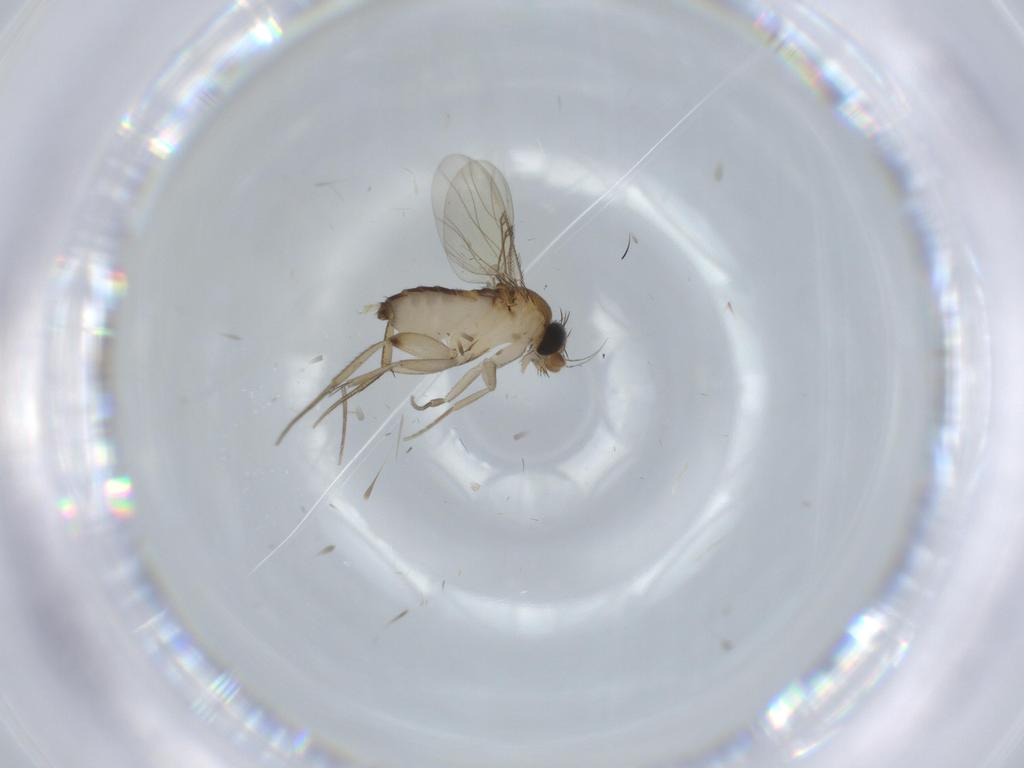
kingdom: Animalia
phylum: Arthropoda
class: Insecta
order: Diptera
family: Phoridae
